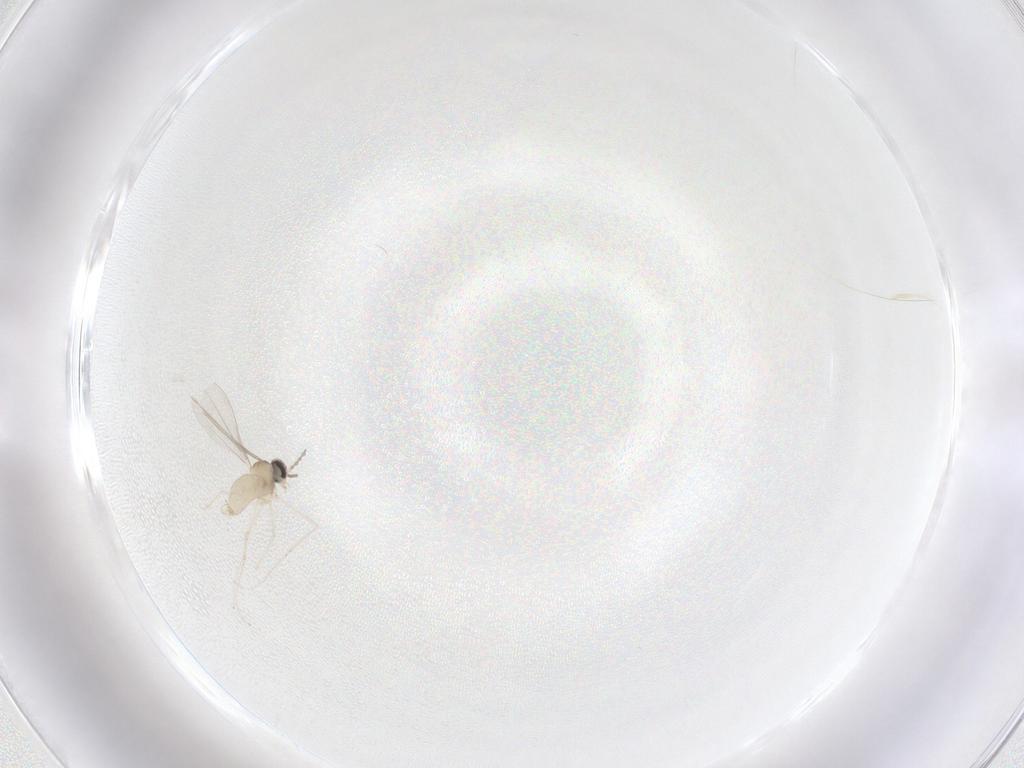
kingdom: Animalia
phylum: Arthropoda
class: Insecta
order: Diptera
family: Cecidomyiidae
